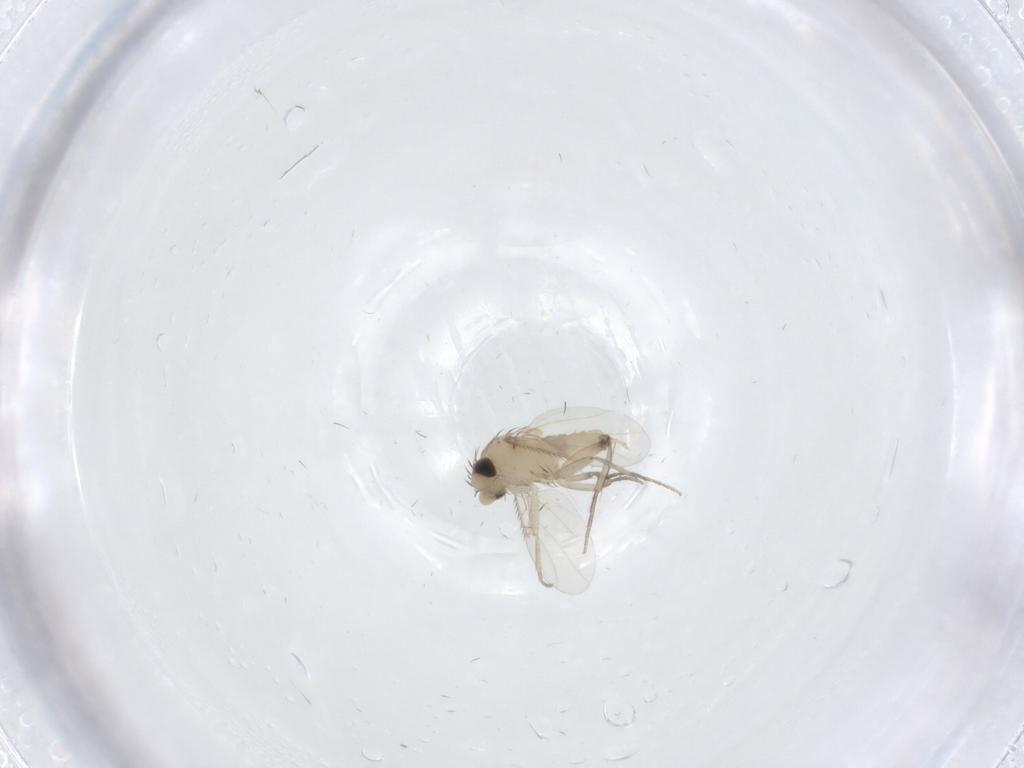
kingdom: Animalia
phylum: Arthropoda
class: Insecta
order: Diptera
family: Phoridae
